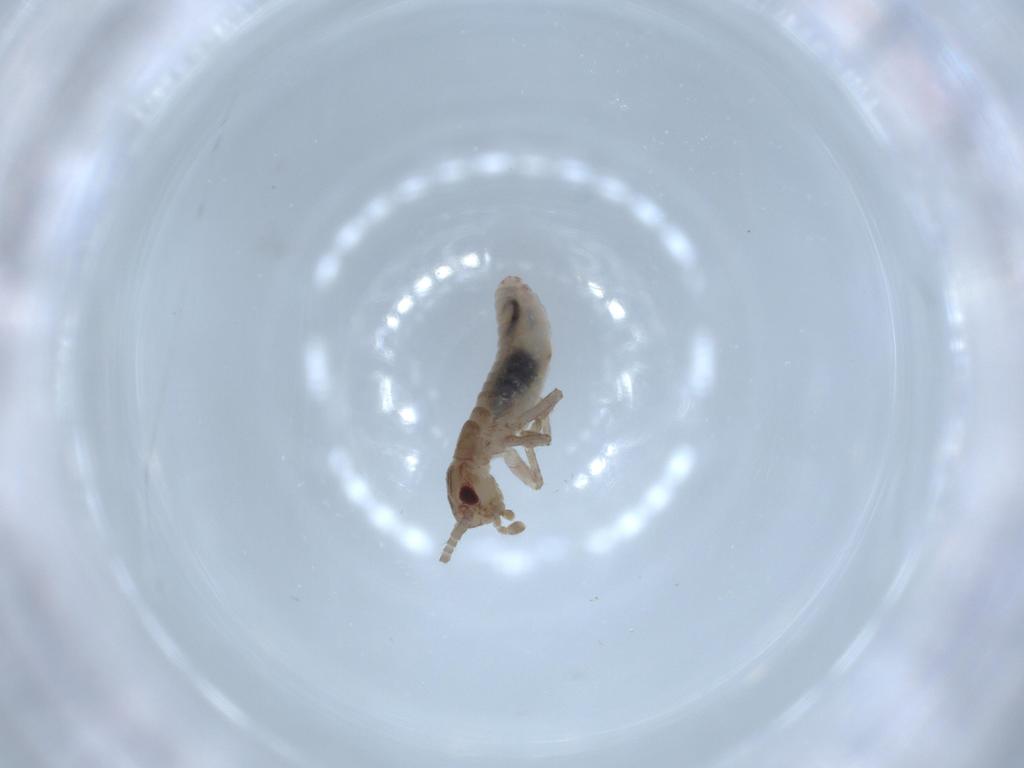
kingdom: Animalia
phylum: Arthropoda
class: Insecta
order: Orthoptera
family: Mogoplistidae
